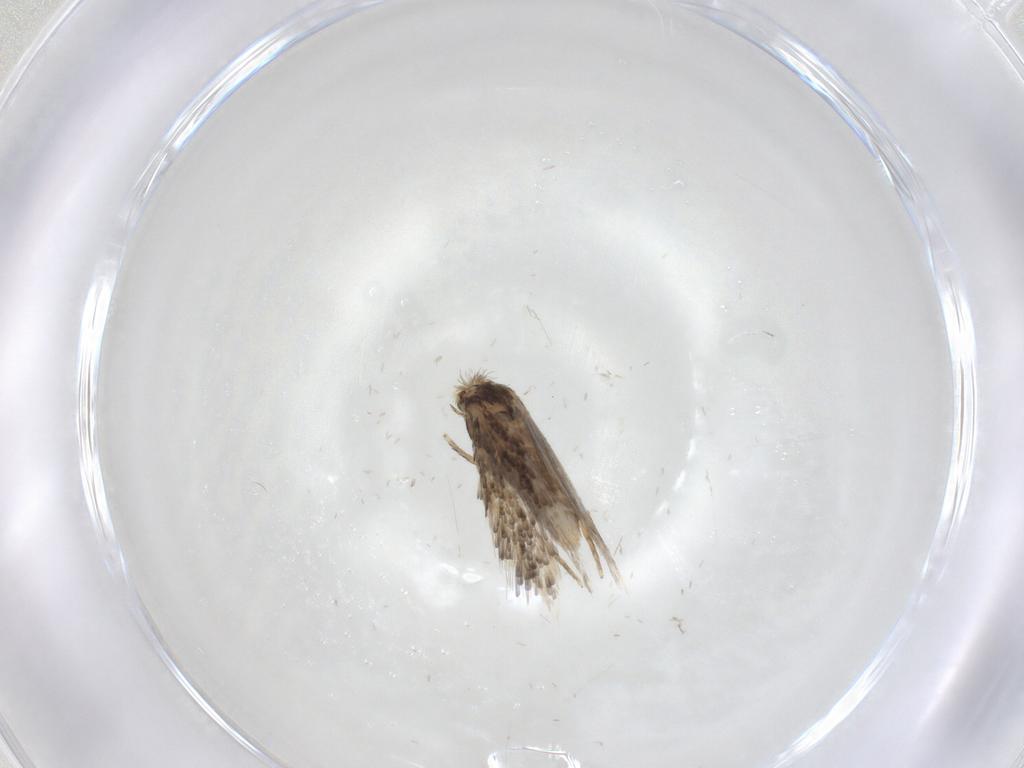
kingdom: Animalia
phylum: Arthropoda
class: Insecta
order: Lepidoptera
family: Nepticulidae
